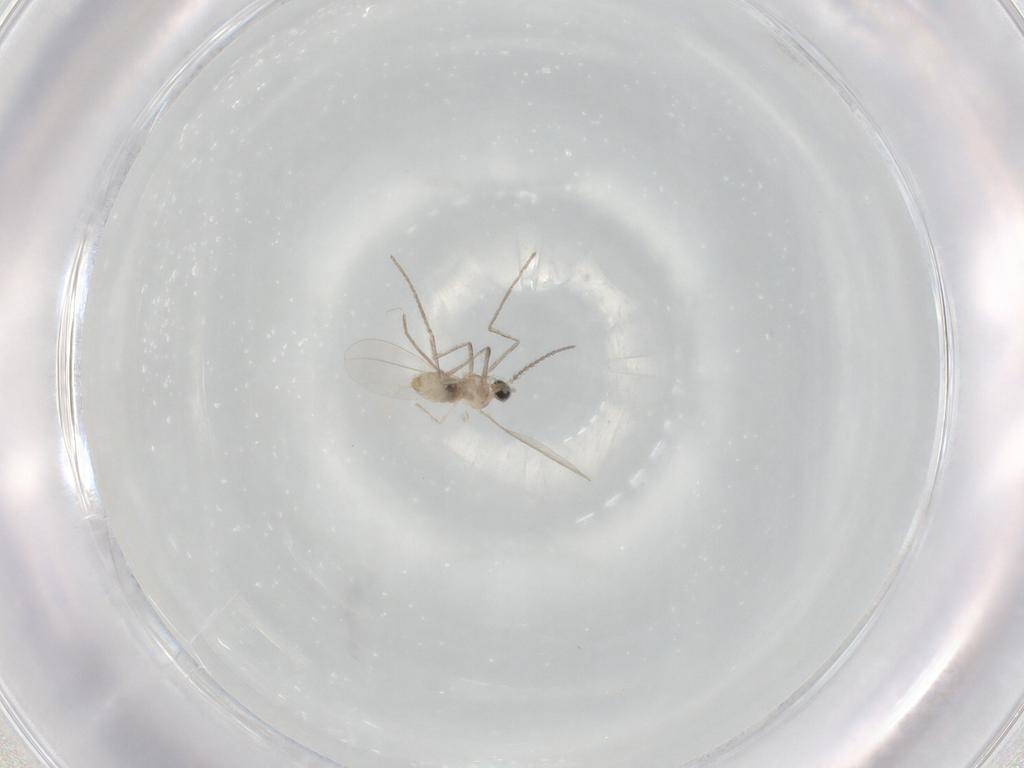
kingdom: Animalia
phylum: Arthropoda
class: Insecta
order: Diptera
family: Cecidomyiidae
